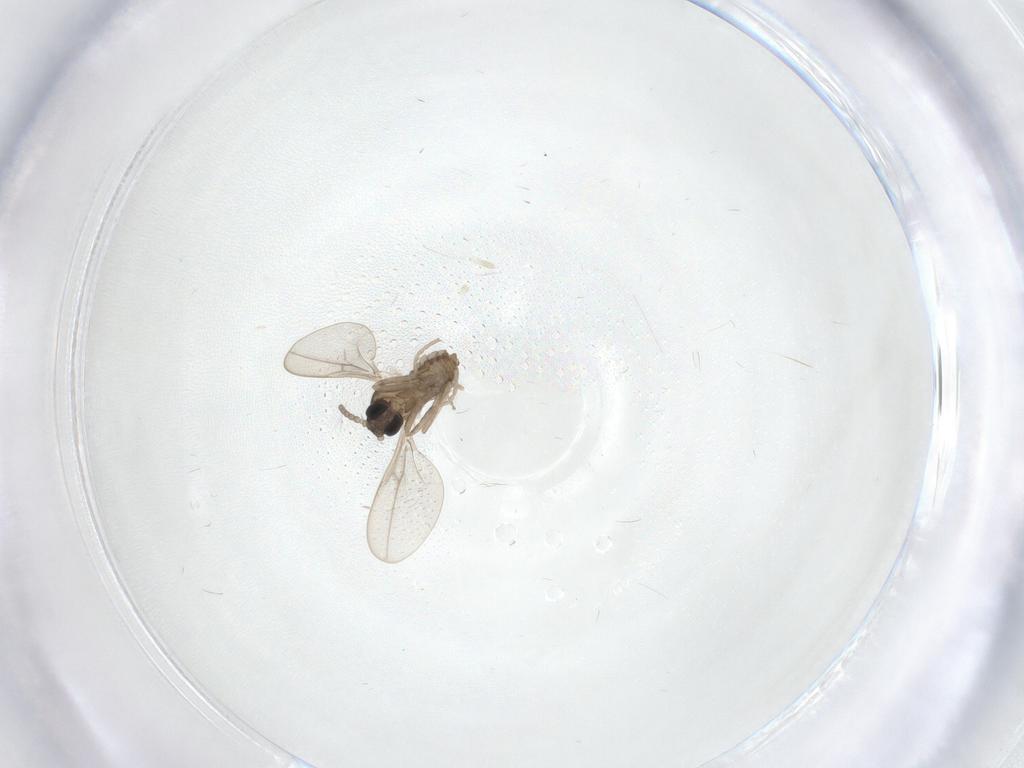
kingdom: Animalia
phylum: Arthropoda
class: Insecta
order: Diptera
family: Cecidomyiidae
